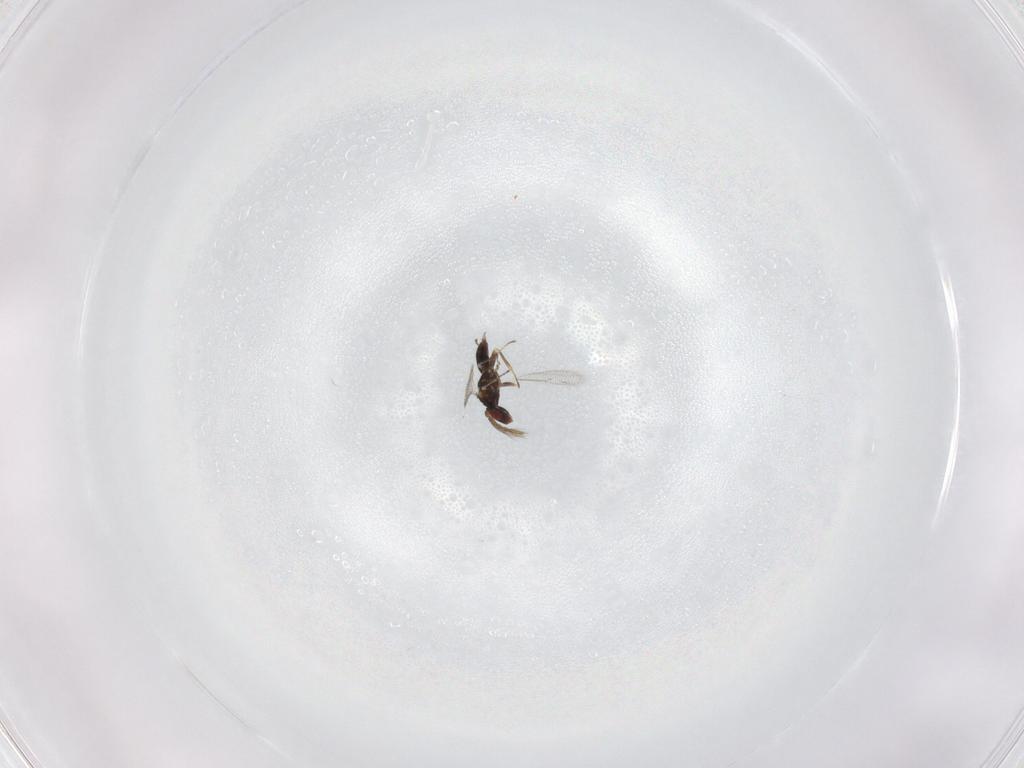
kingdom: Animalia
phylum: Arthropoda
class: Insecta
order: Hymenoptera
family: Eulophidae
